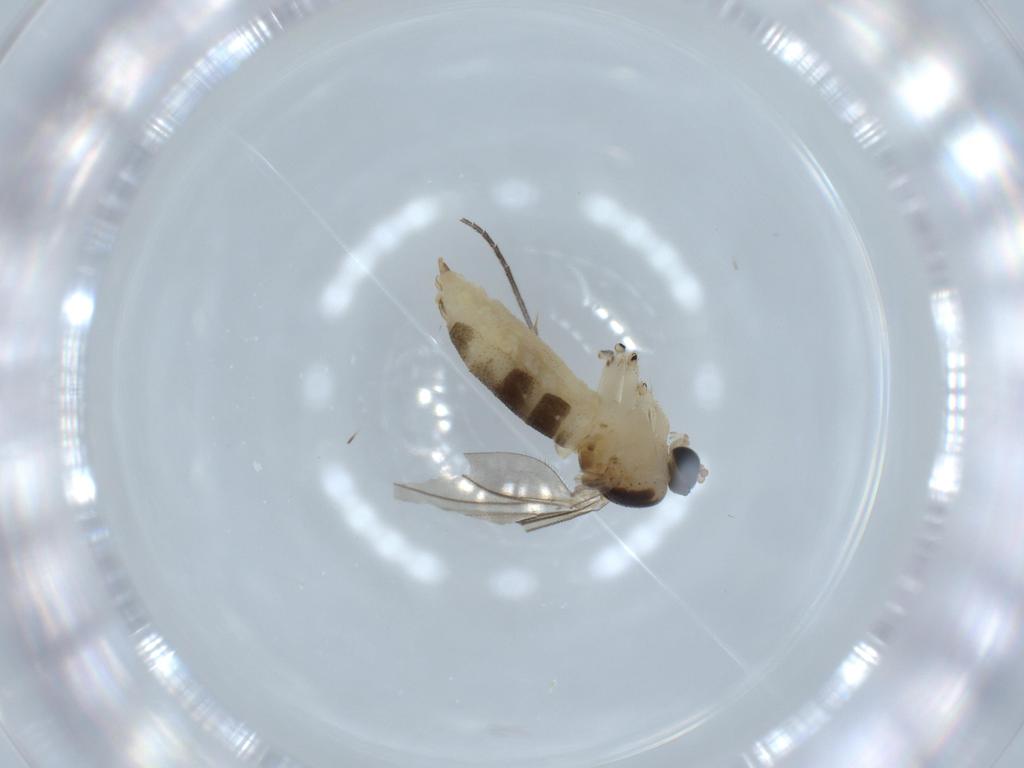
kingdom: Animalia
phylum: Arthropoda
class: Insecta
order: Diptera
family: Sciaridae
